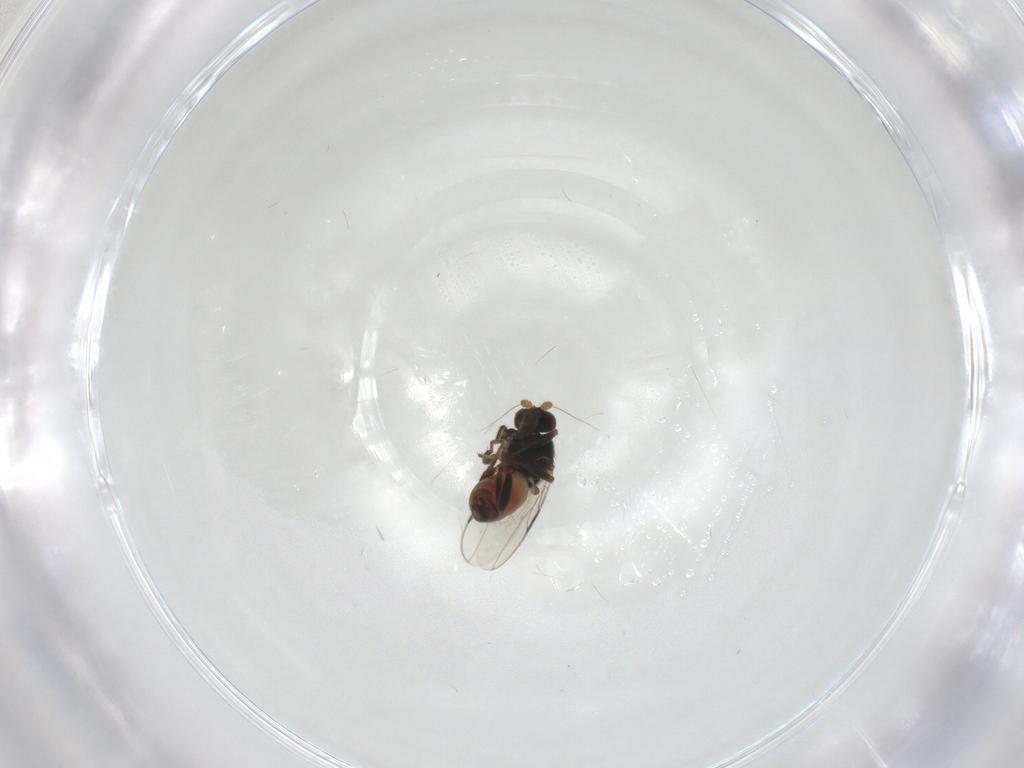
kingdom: Animalia
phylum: Arthropoda
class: Insecta
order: Diptera
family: Sphaeroceridae
